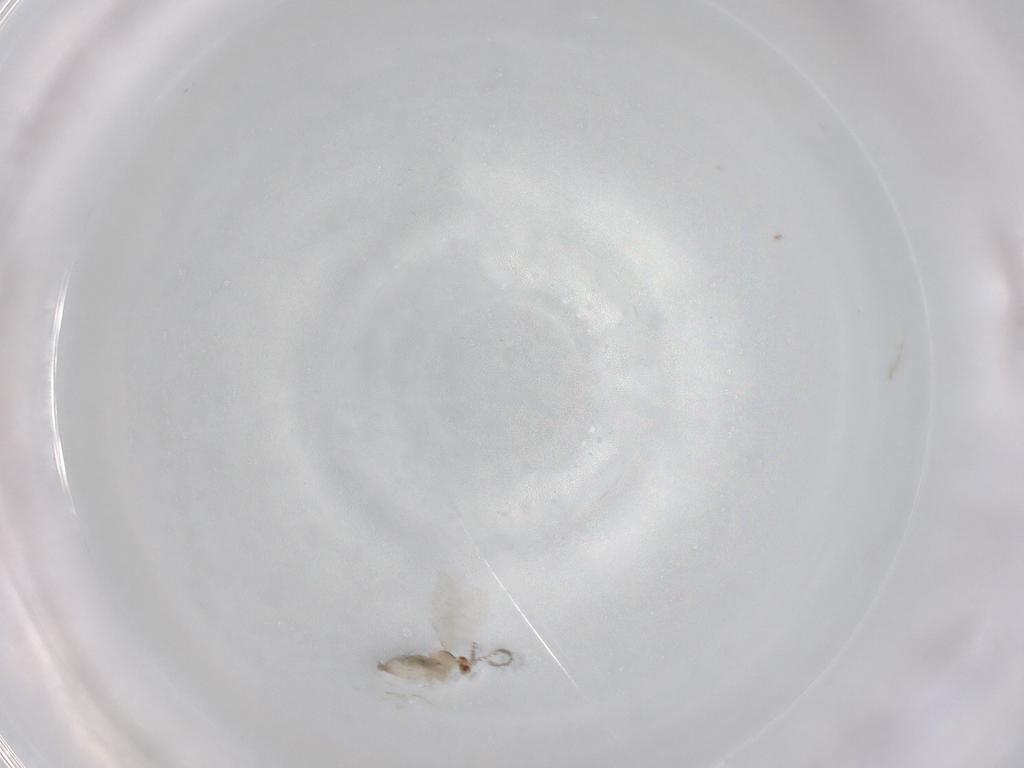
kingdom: Animalia
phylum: Arthropoda
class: Insecta
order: Diptera
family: Cecidomyiidae
